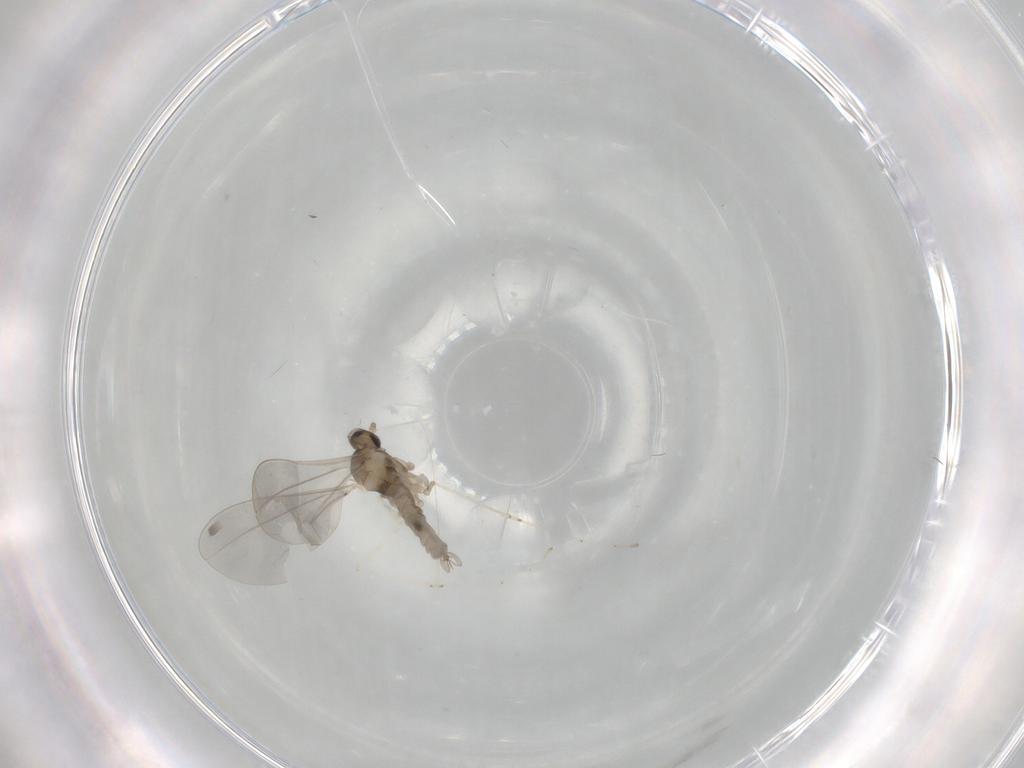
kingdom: Animalia
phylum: Arthropoda
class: Insecta
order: Diptera
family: Cecidomyiidae
